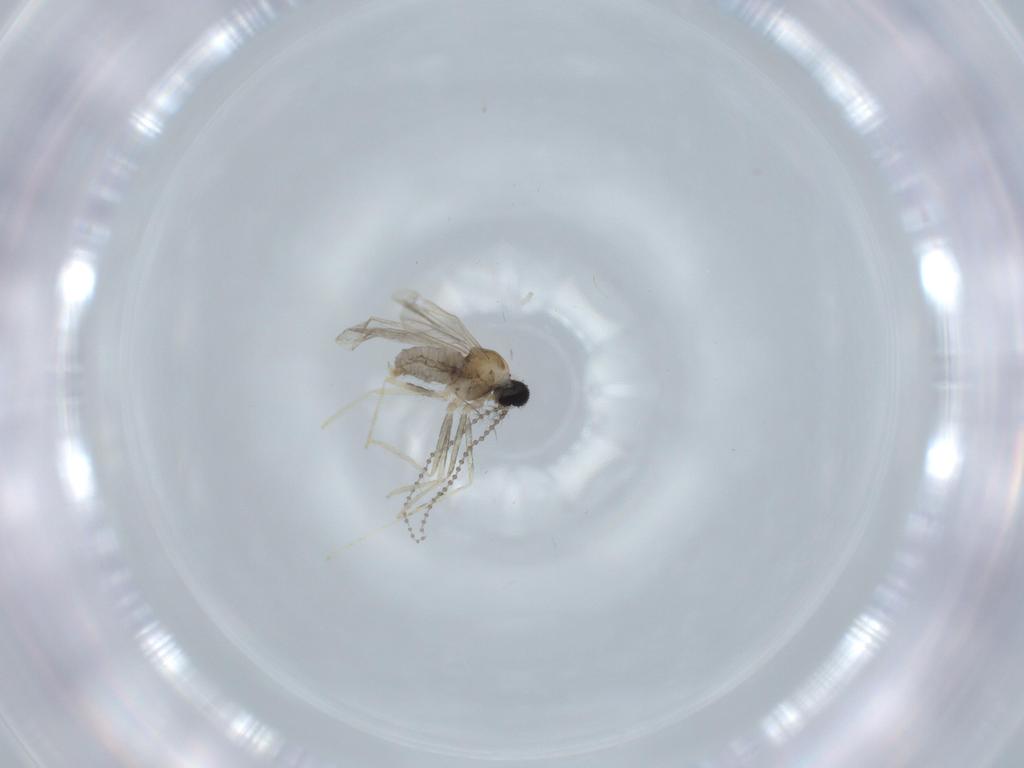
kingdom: Animalia
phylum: Arthropoda
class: Insecta
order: Diptera
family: Cecidomyiidae
